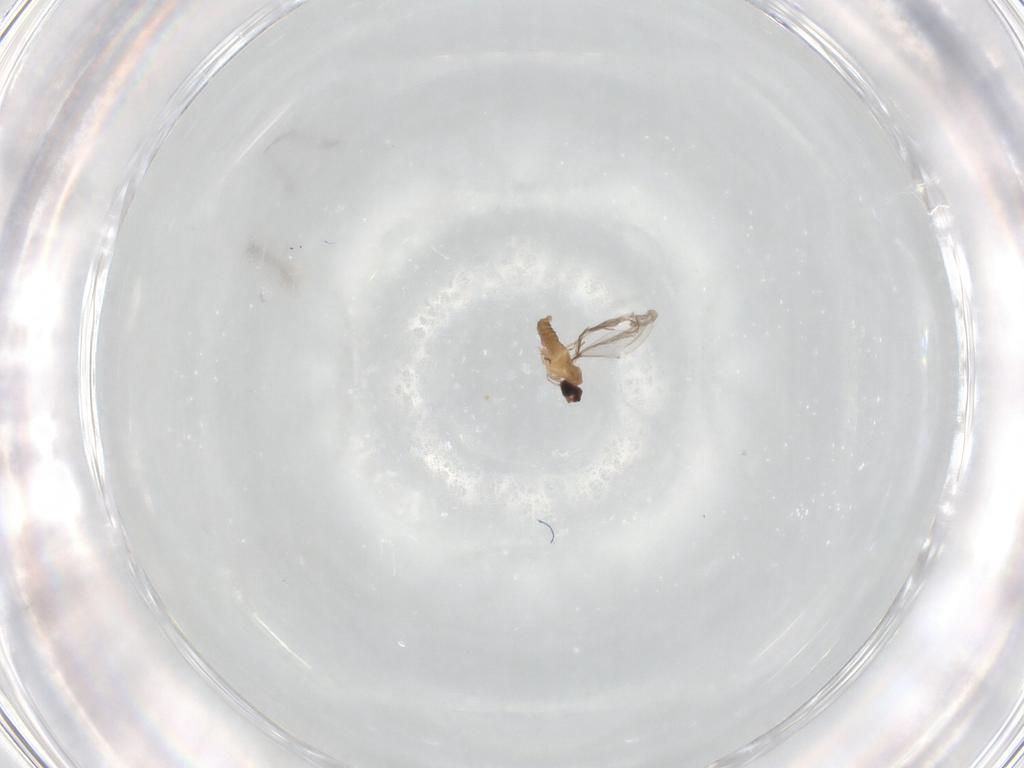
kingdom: Animalia
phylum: Arthropoda
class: Insecta
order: Diptera
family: Cecidomyiidae
